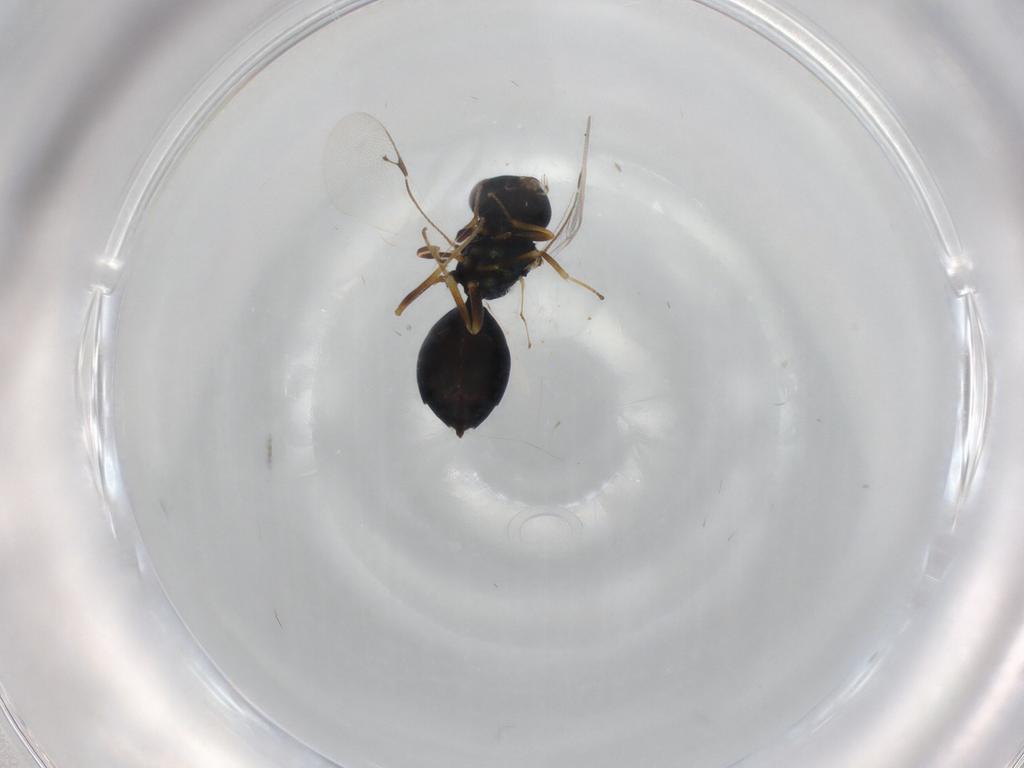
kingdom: Animalia
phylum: Arthropoda
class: Insecta
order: Hymenoptera
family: Pteromalidae
